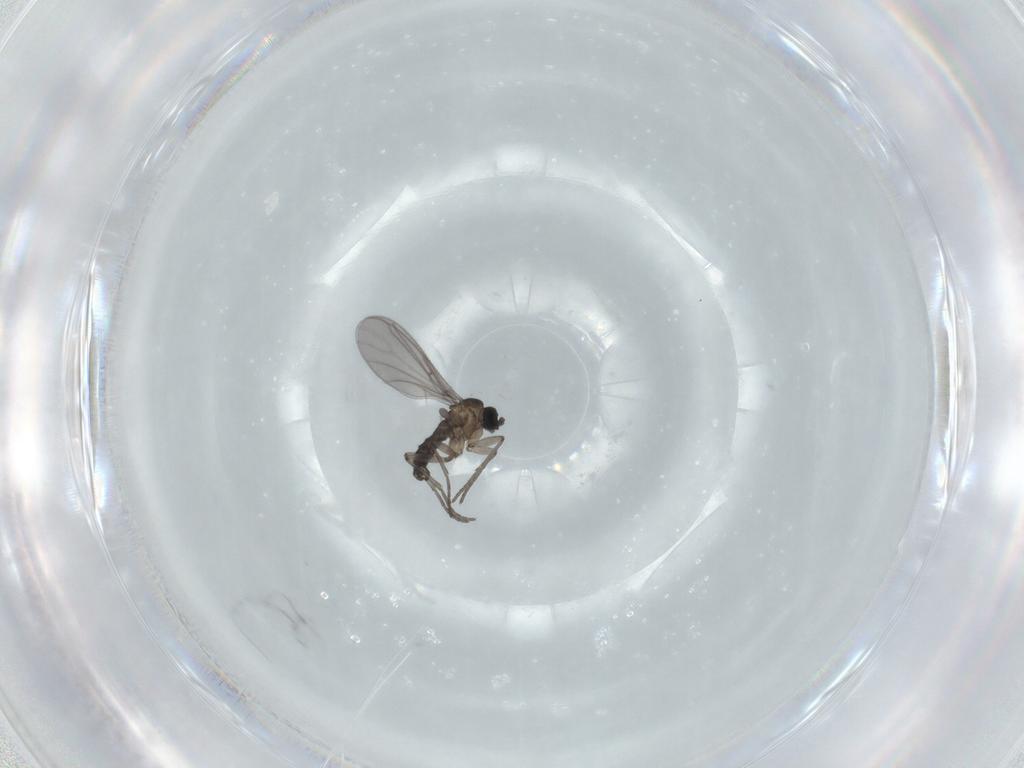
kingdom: Animalia
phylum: Arthropoda
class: Insecta
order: Diptera
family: Sciaridae
